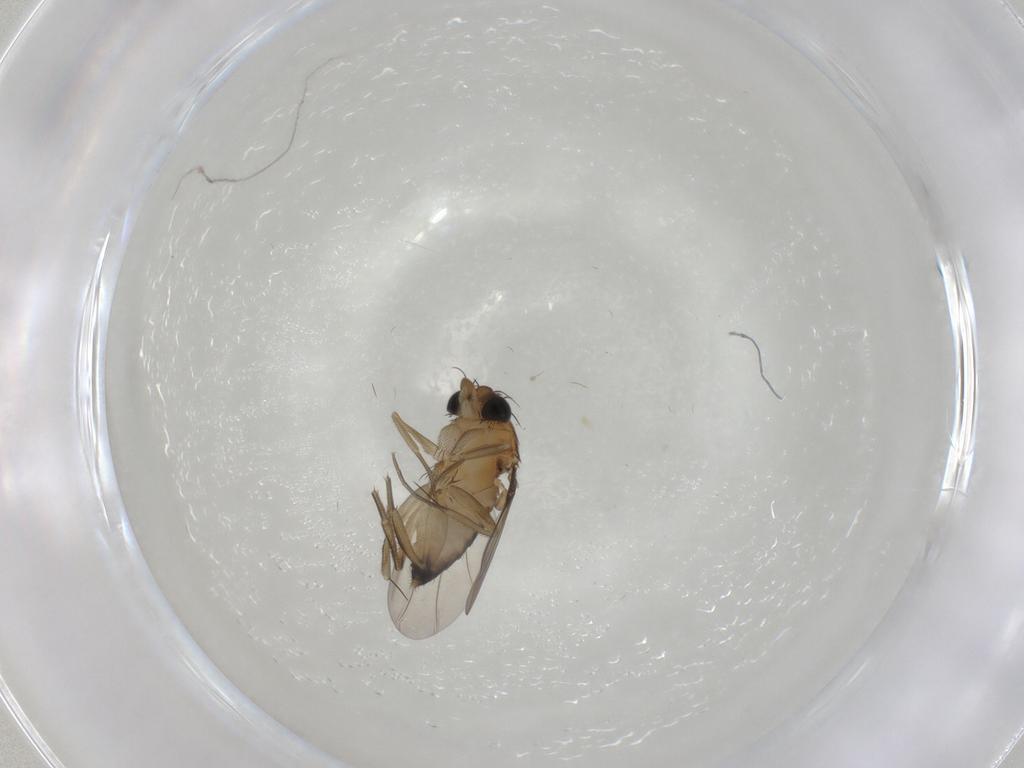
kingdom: Animalia
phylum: Arthropoda
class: Insecta
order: Diptera
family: Phoridae
